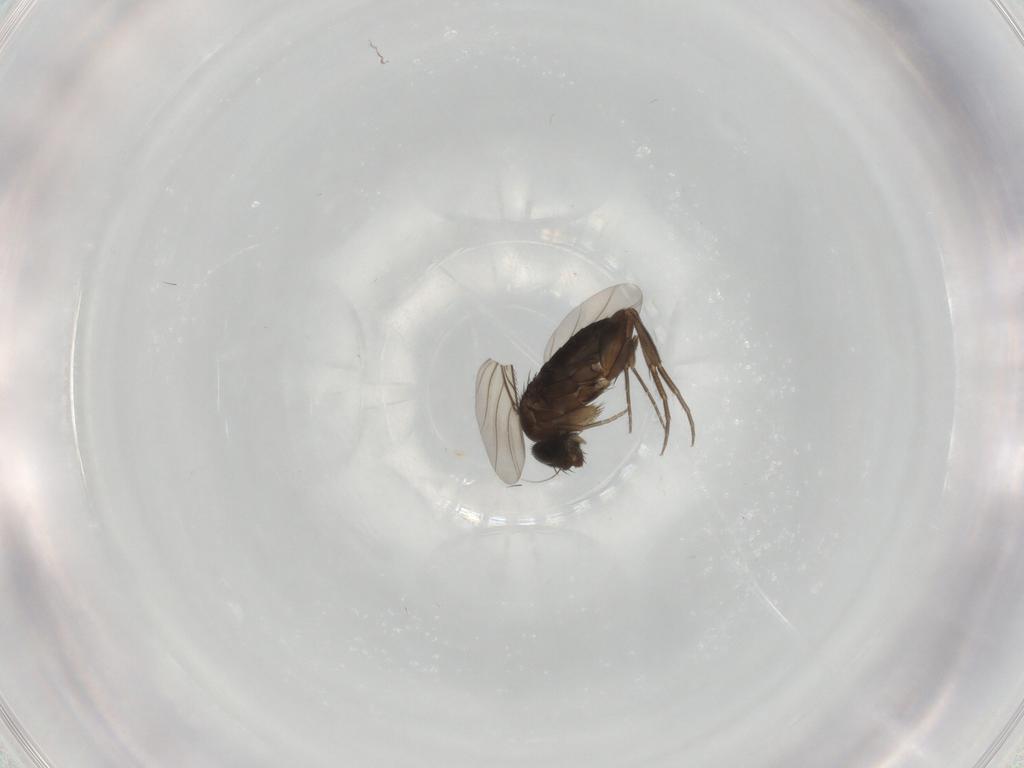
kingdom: Animalia
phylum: Arthropoda
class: Insecta
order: Diptera
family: Phoridae
